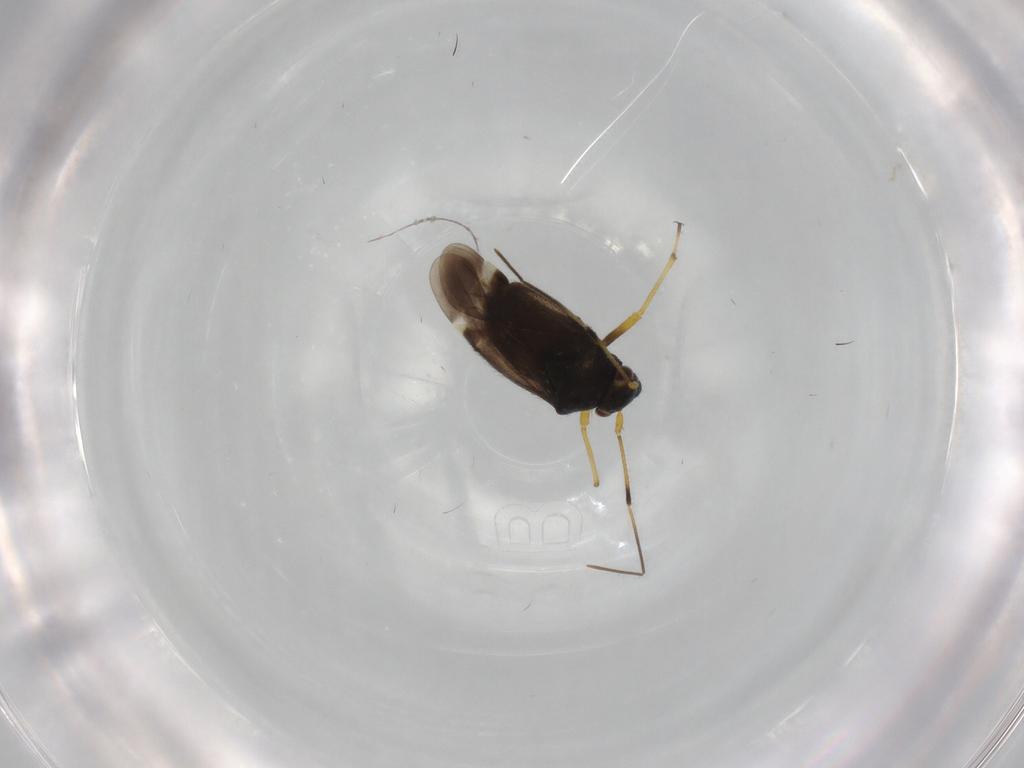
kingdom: Animalia
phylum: Arthropoda
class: Insecta
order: Hemiptera
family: Miridae
